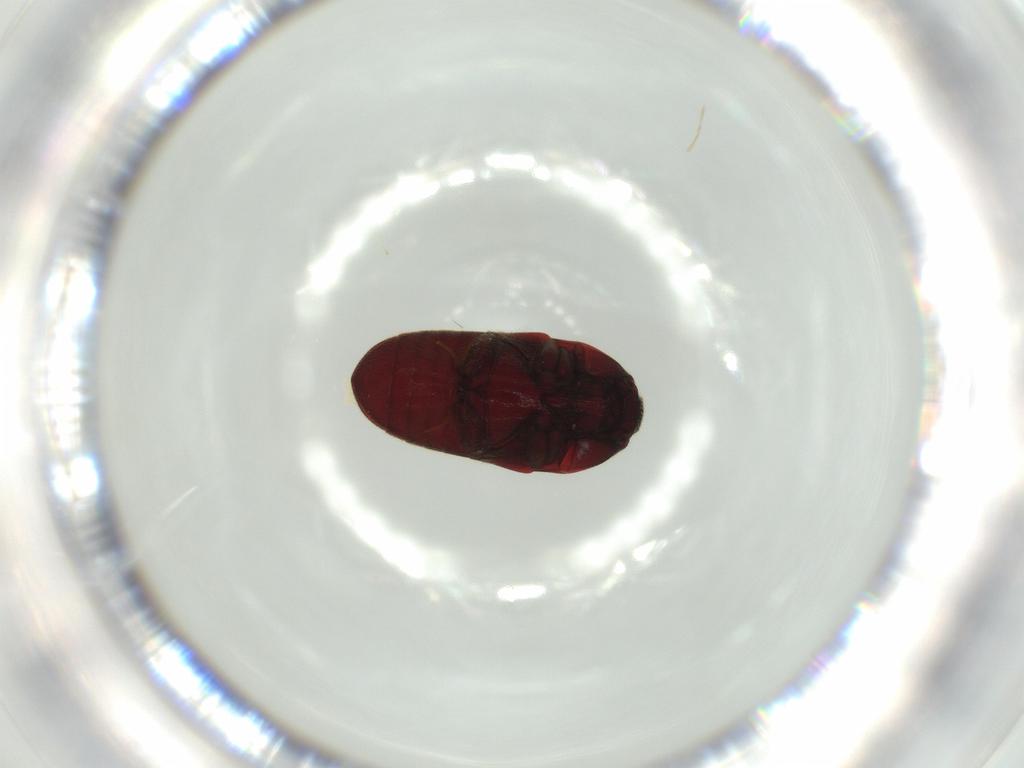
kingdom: Animalia
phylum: Arthropoda
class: Insecta
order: Coleoptera
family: Throscidae
